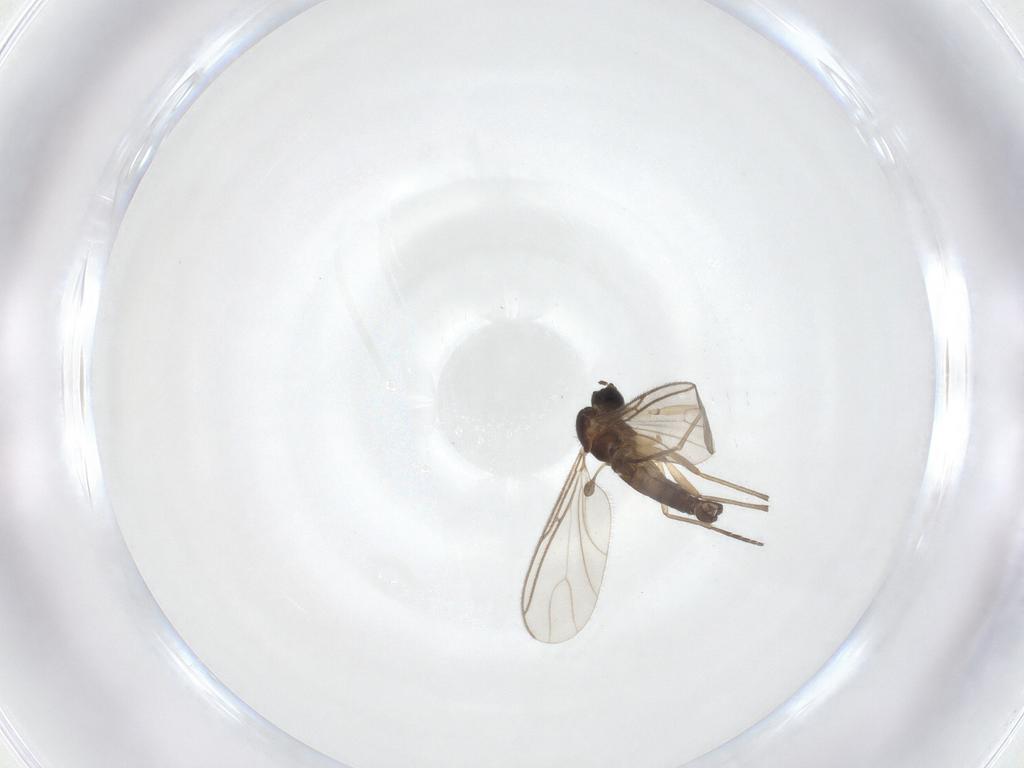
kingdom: Animalia
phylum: Arthropoda
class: Insecta
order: Diptera
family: Sciaridae
